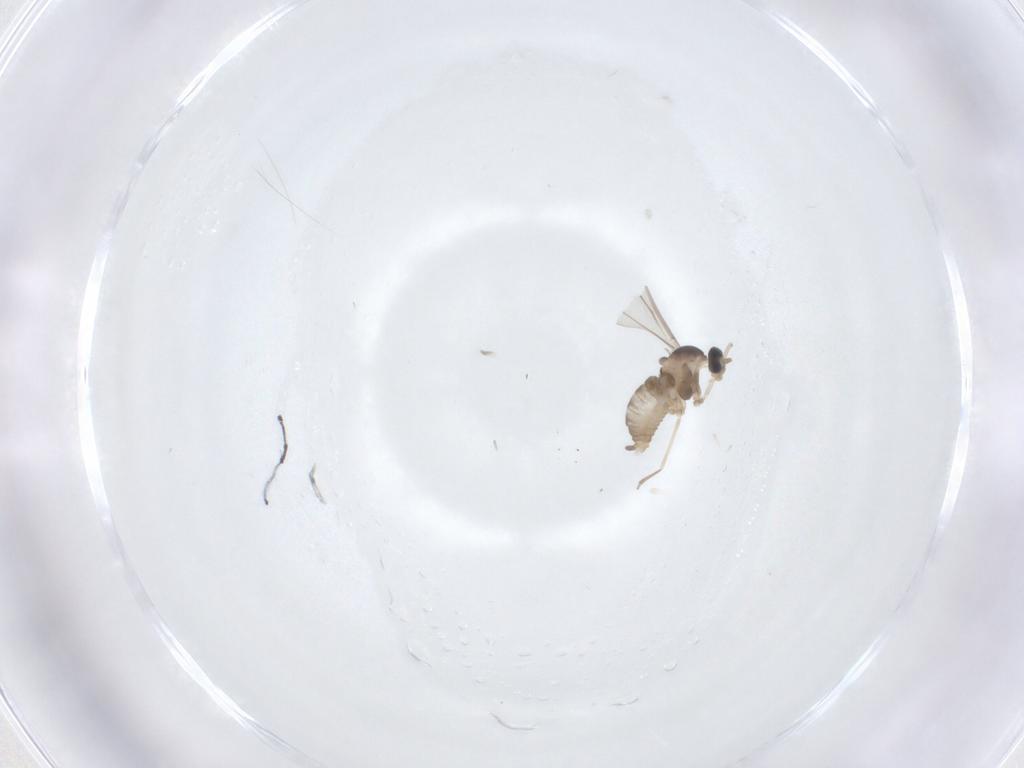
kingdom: Animalia
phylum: Arthropoda
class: Insecta
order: Diptera
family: Cecidomyiidae
